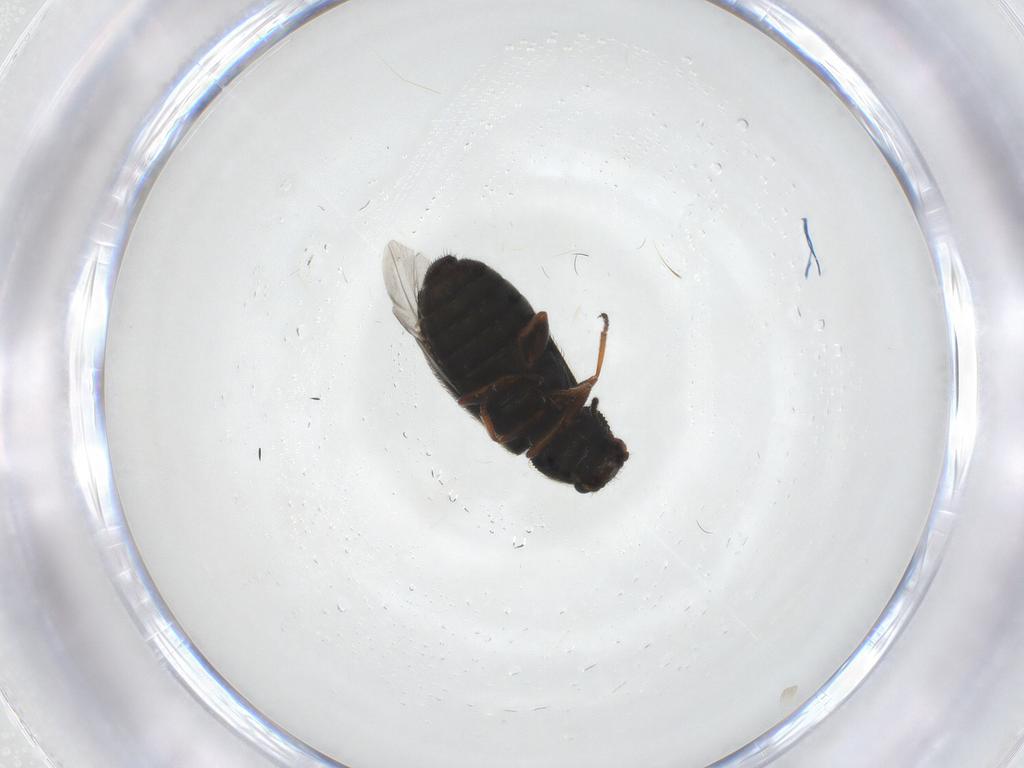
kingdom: Animalia
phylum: Arthropoda
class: Insecta
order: Coleoptera
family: Melyridae
